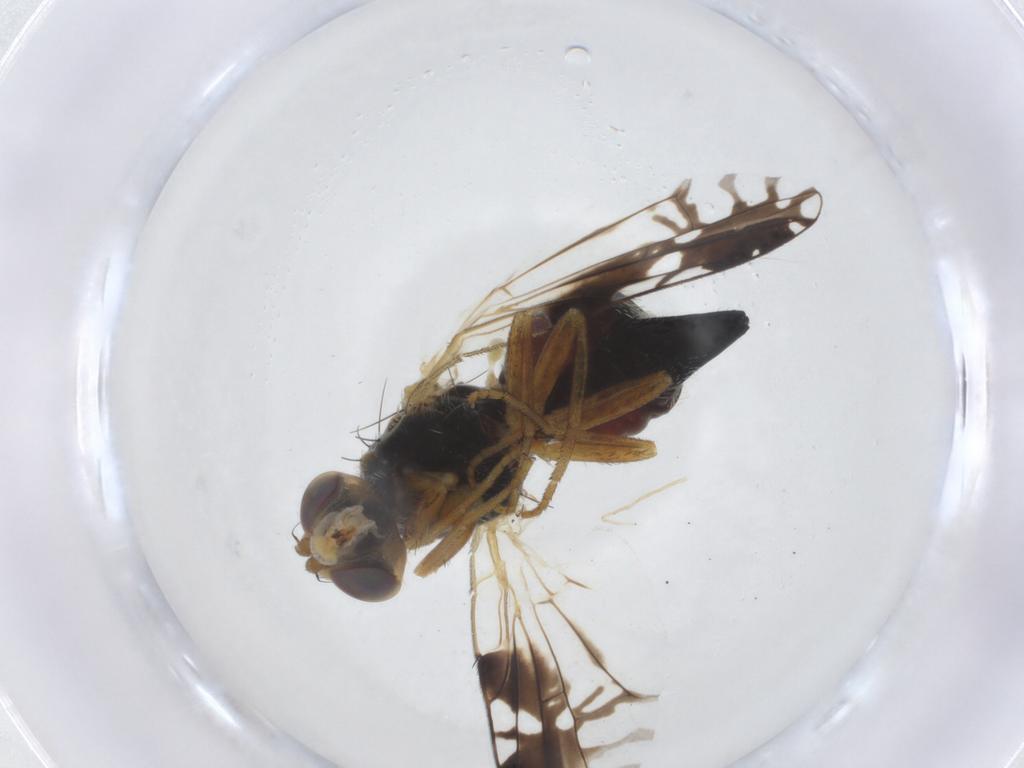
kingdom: Animalia
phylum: Arthropoda
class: Insecta
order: Diptera
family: Tephritidae
